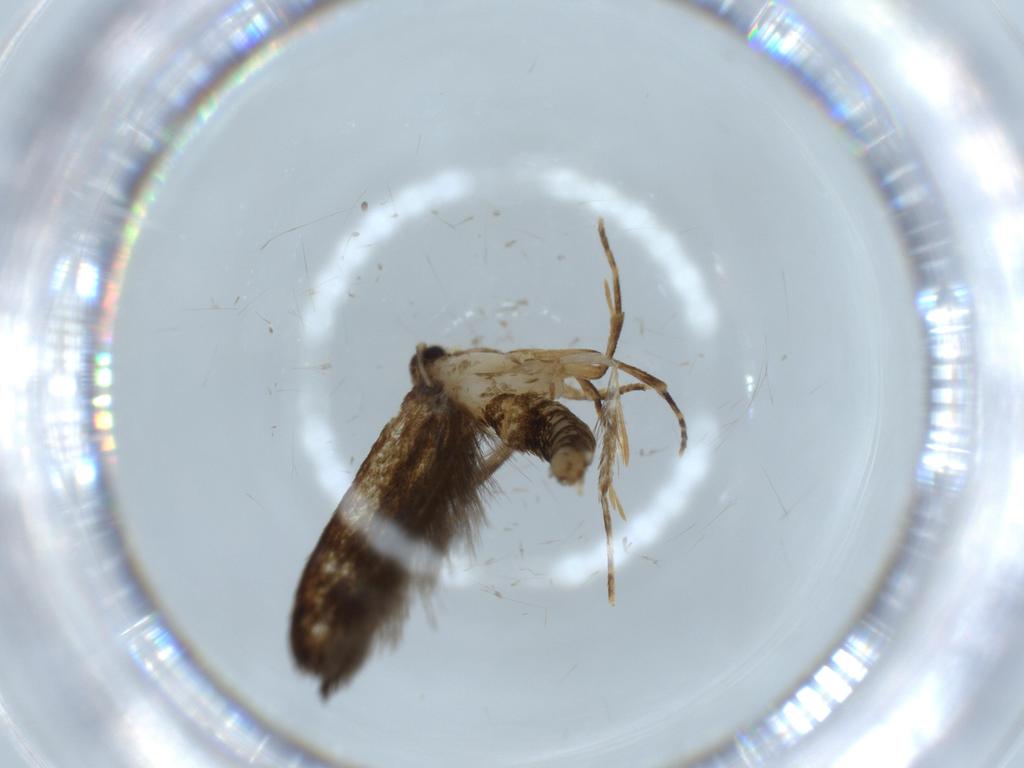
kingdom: Animalia
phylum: Arthropoda
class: Insecta
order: Lepidoptera
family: Tineidae
